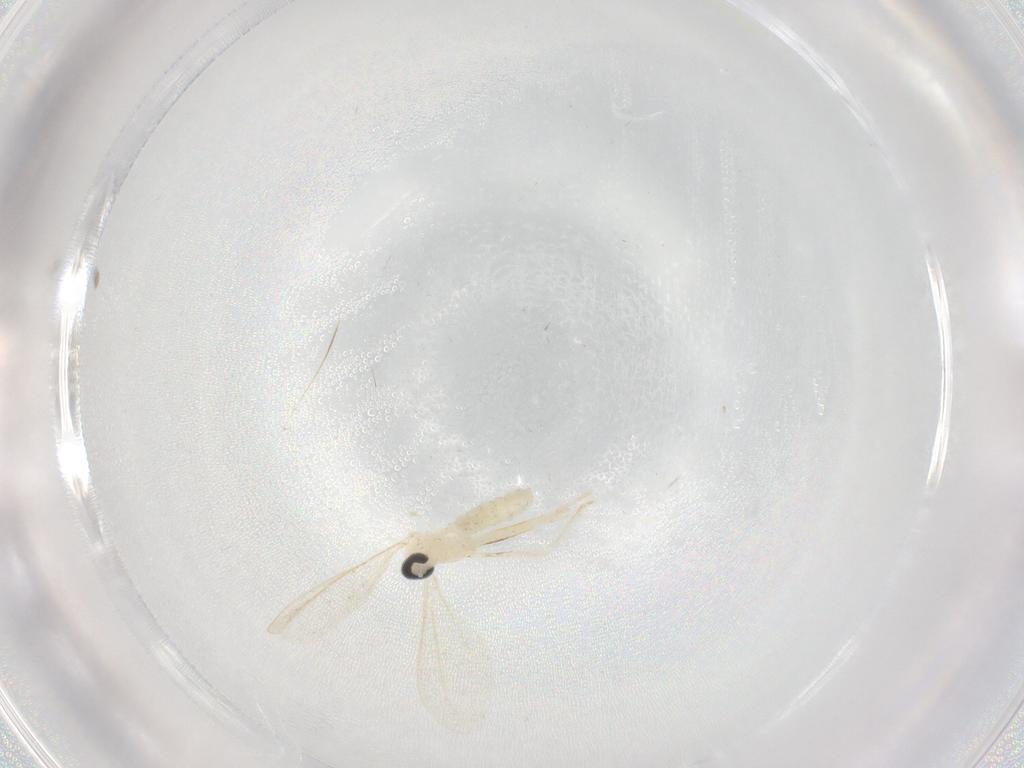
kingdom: Animalia
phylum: Arthropoda
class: Insecta
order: Diptera
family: Cecidomyiidae
